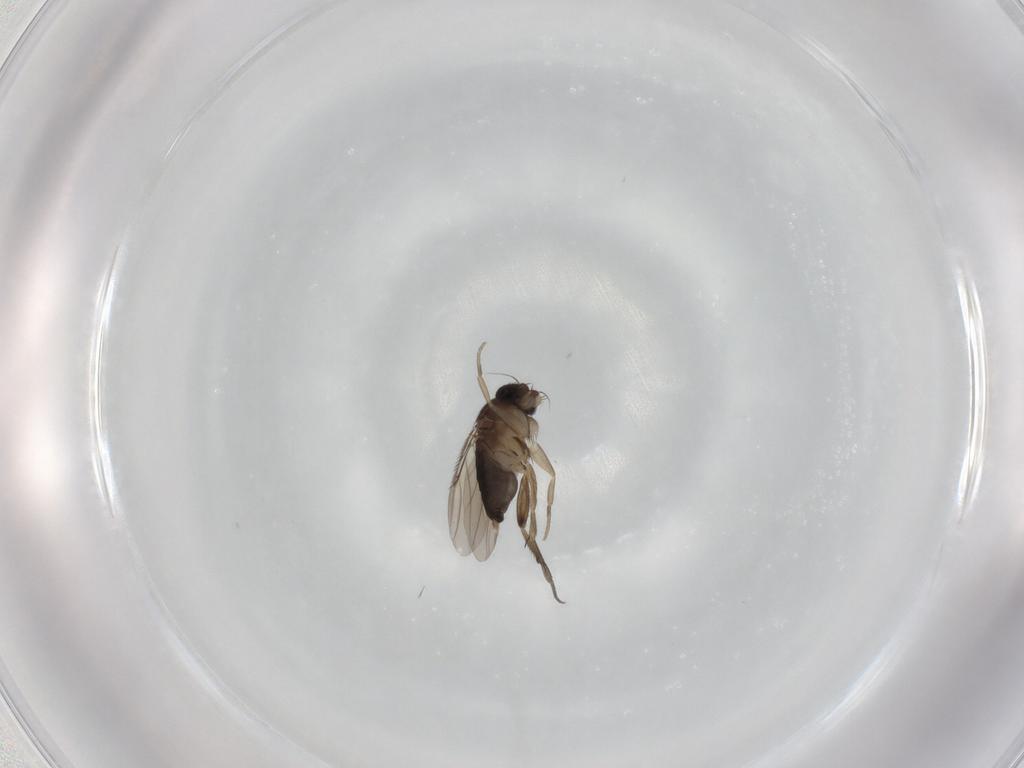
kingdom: Animalia
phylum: Arthropoda
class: Insecta
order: Diptera
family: Phoridae
